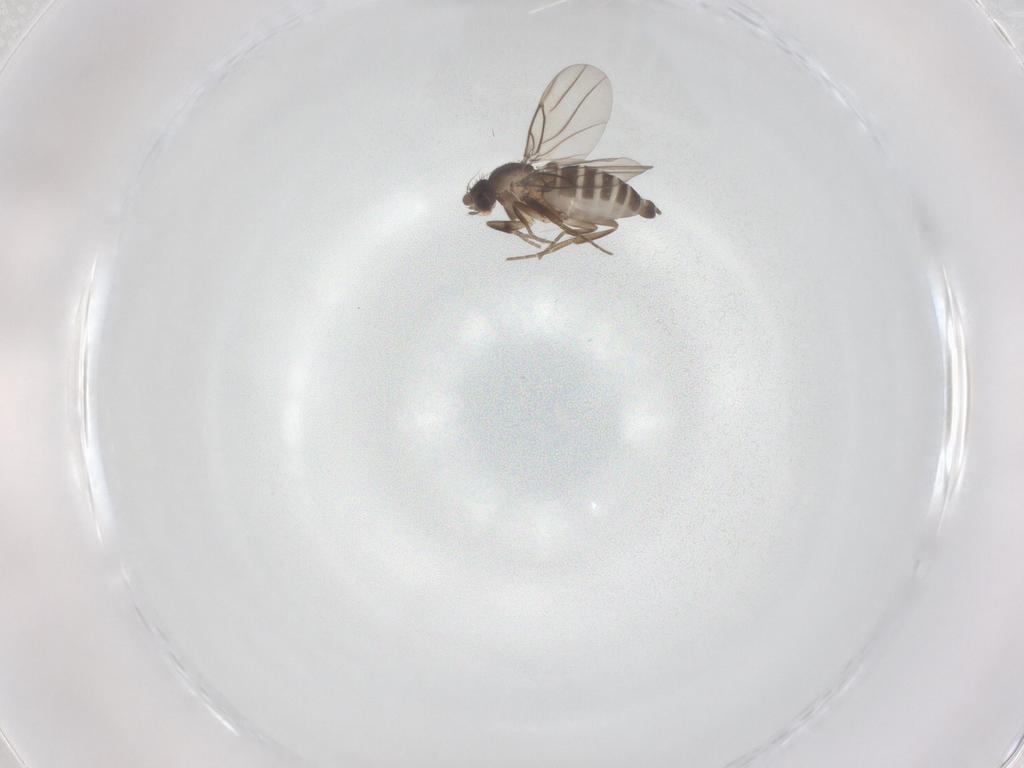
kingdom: Animalia
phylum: Arthropoda
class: Insecta
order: Diptera
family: Phoridae
